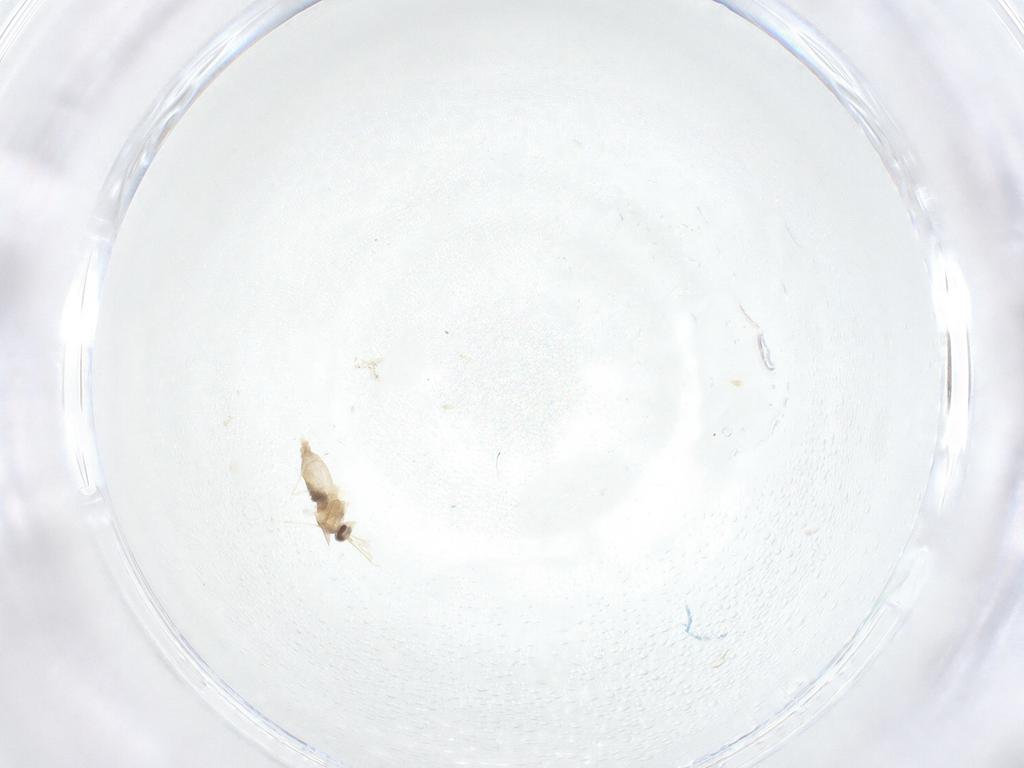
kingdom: Animalia
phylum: Arthropoda
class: Insecta
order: Diptera
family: Cecidomyiidae
